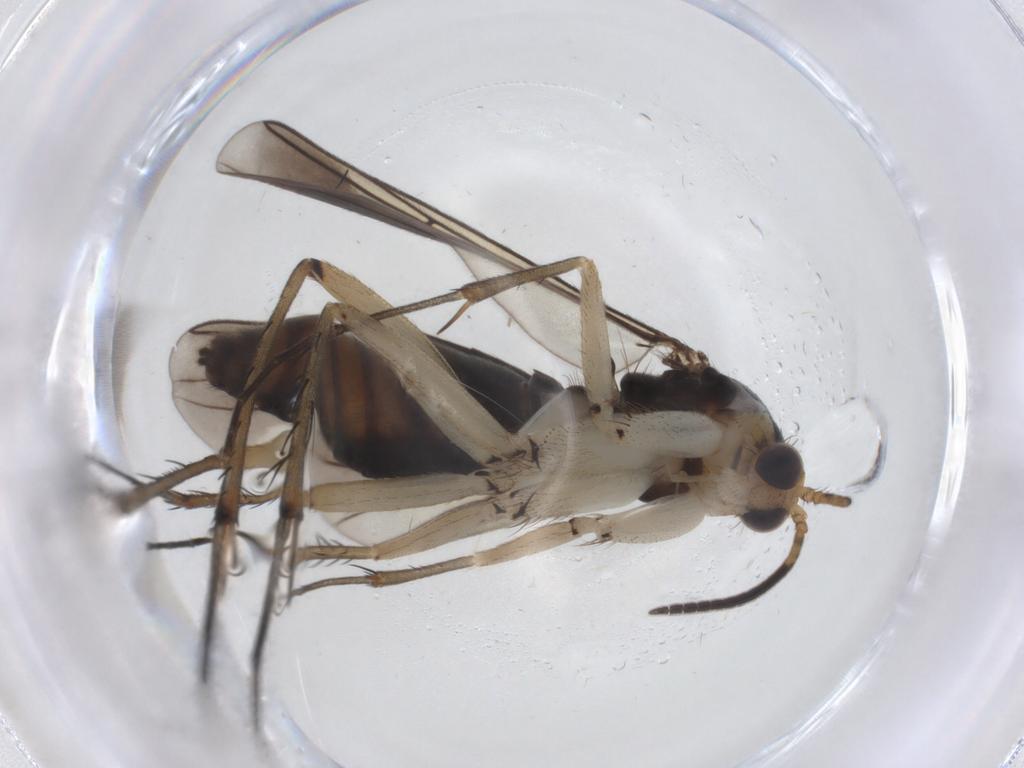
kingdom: Animalia
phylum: Arthropoda
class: Insecta
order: Diptera
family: Mycetophilidae
